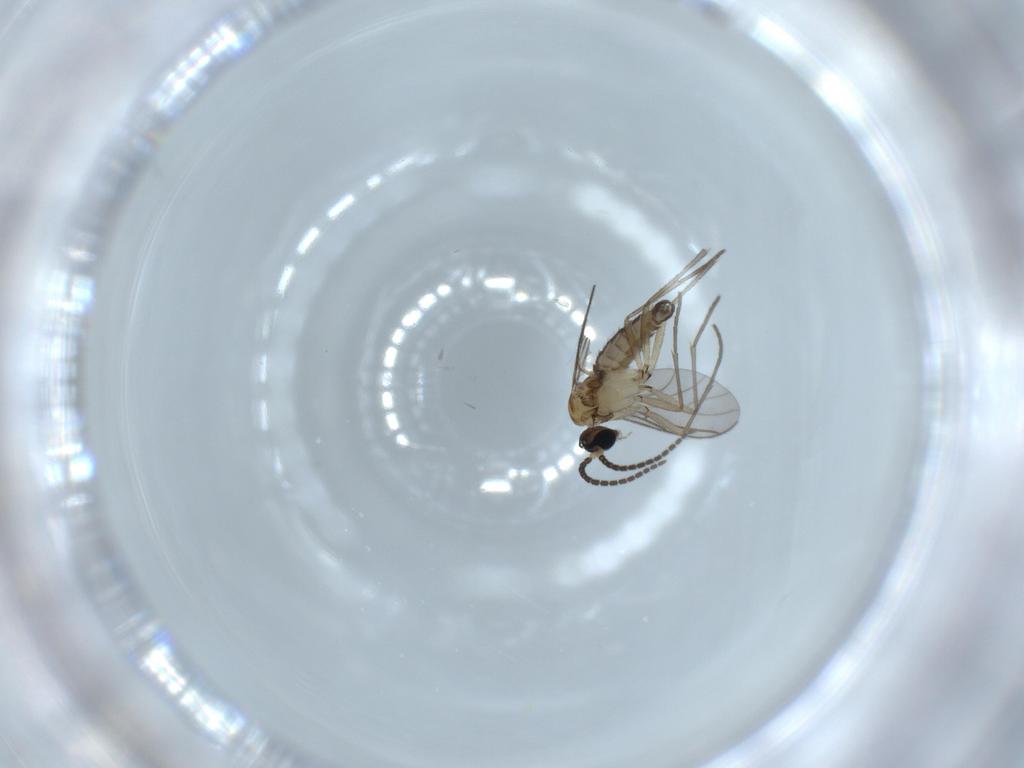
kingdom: Animalia
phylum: Arthropoda
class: Insecta
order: Diptera
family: Sciaridae
